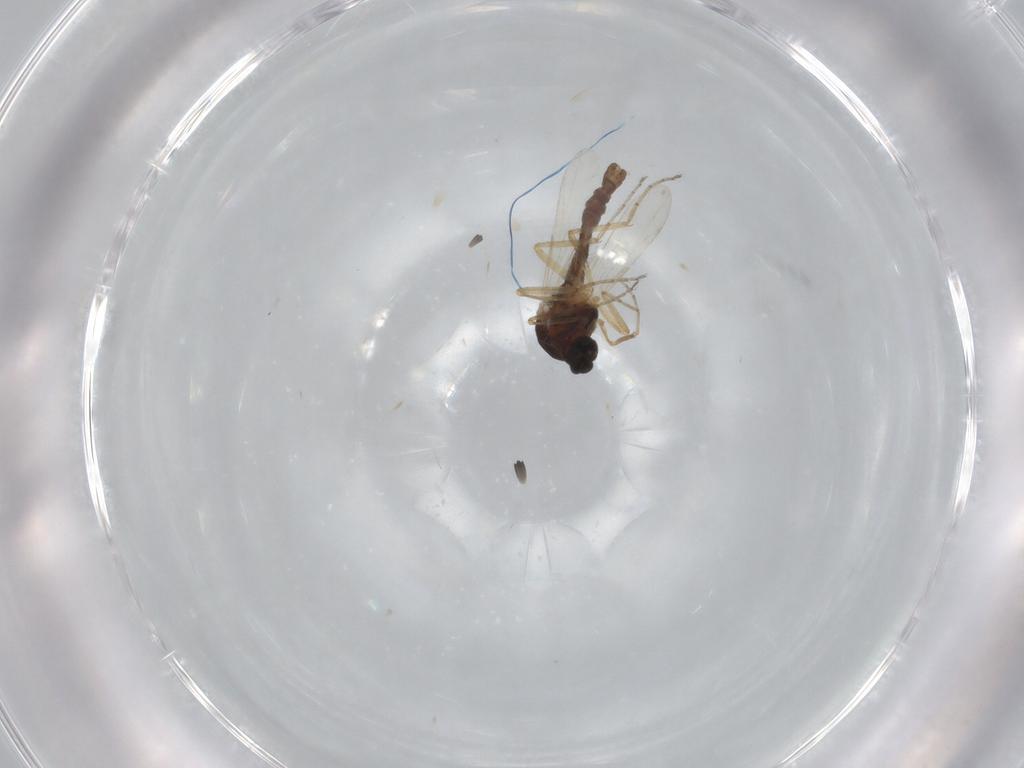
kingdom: Animalia
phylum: Arthropoda
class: Insecta
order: Diptera
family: Ceratopogonidae
